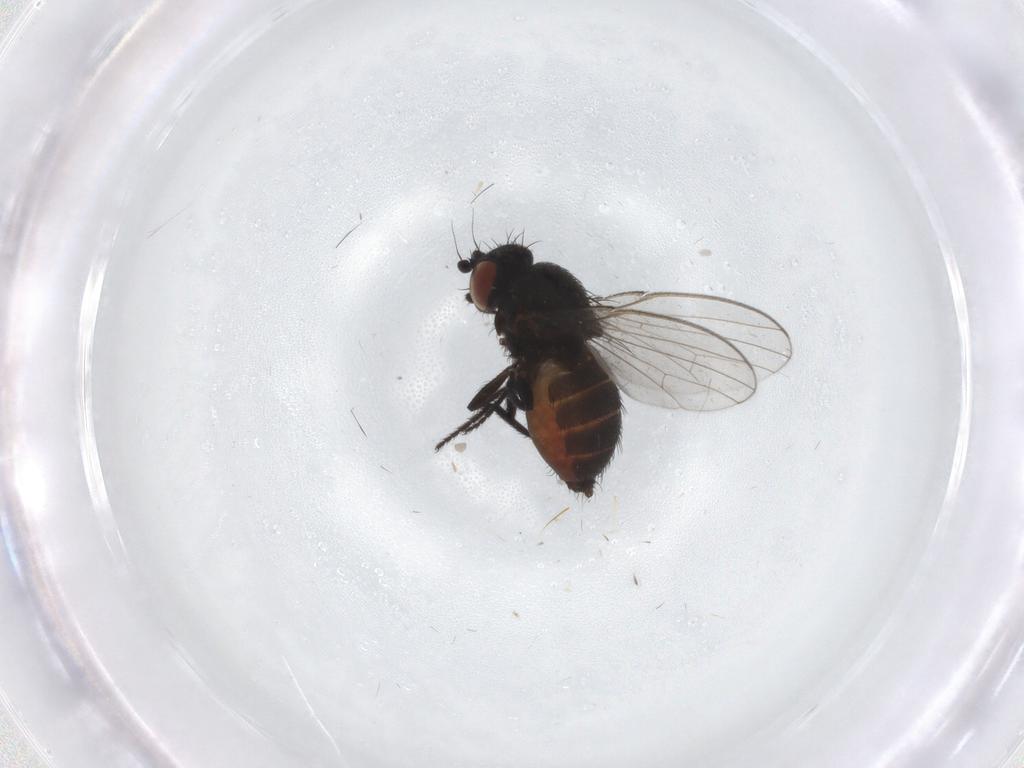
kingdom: Animalia
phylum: Arthropoda
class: Insecta
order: Diptera
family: Milichiidae
